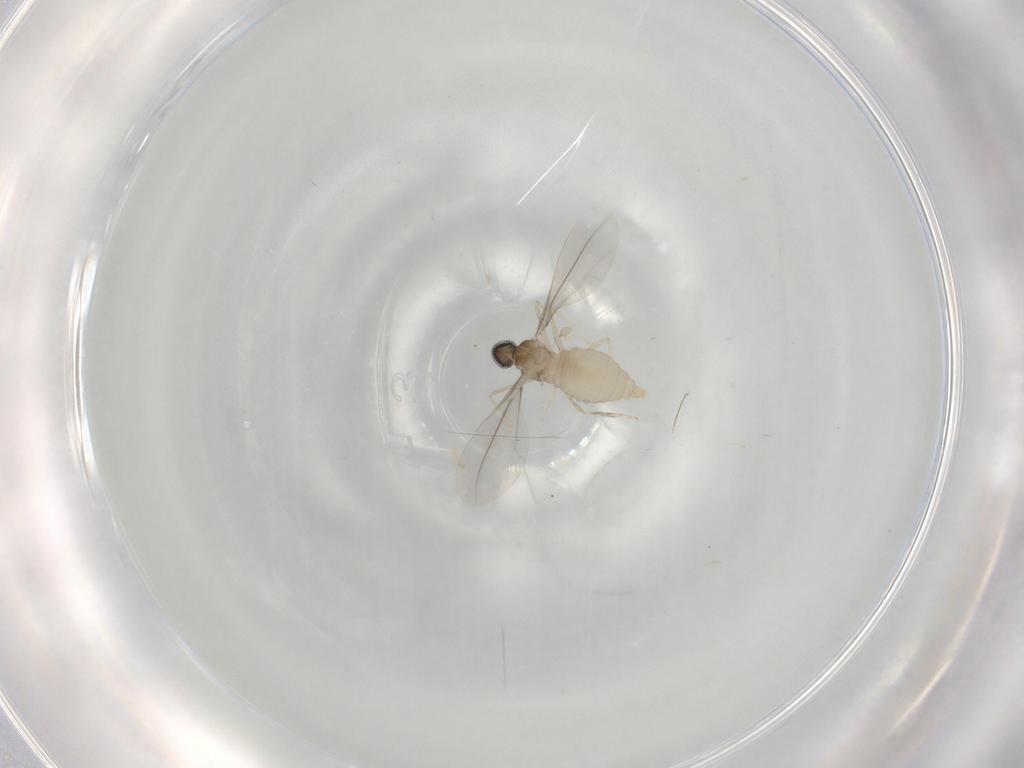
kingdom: Animalia
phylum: Arthropoda
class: Insecta
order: Diptera
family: Cecidomyiidae
